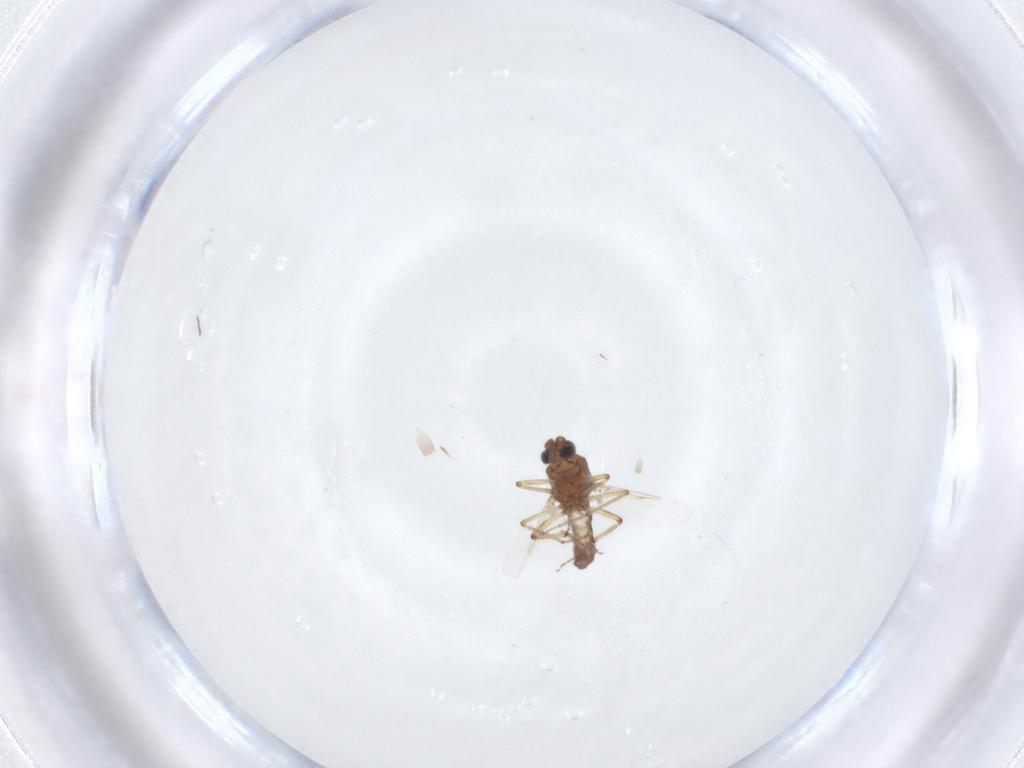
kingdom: Animalia
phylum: Arthropoda
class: Insecta
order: Diptera
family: Ceratopogonidae
